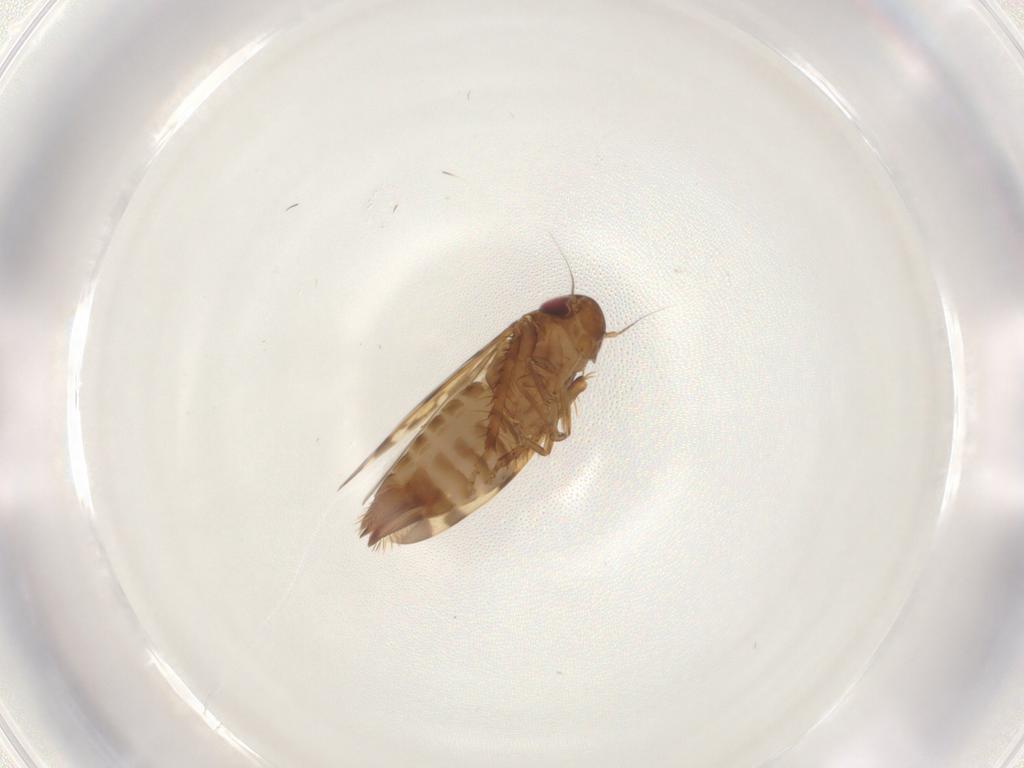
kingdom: Animalia
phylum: Arthropoda
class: Insecta
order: Hemiptera
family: Cicadellidae
